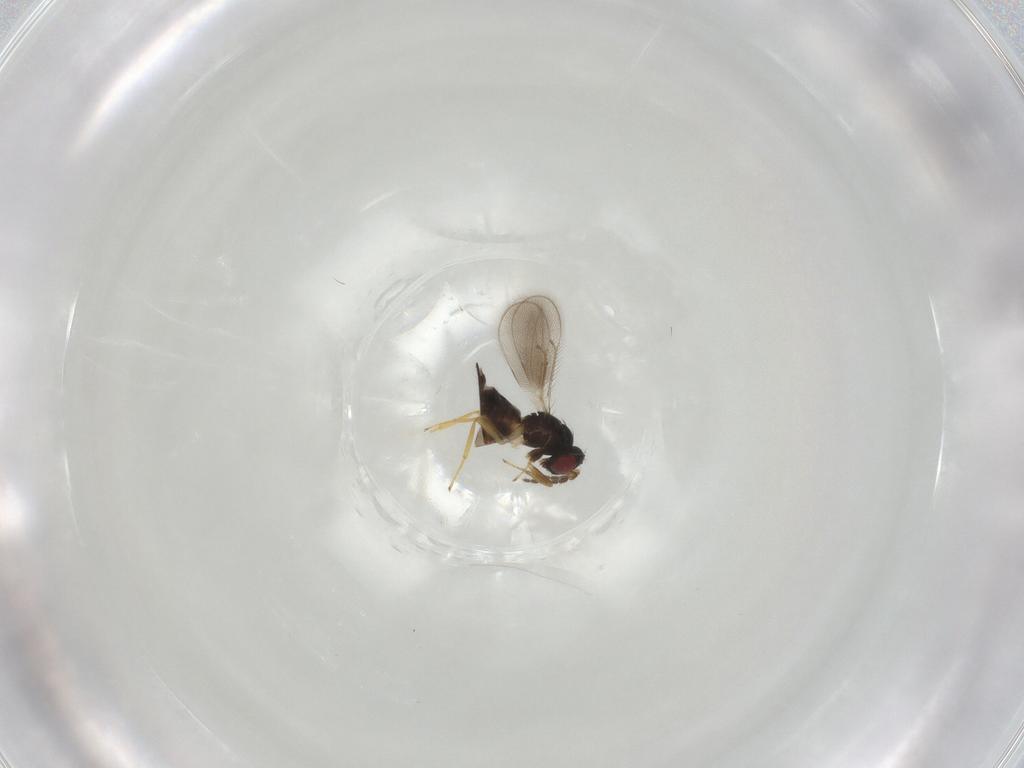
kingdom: Animalia
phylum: Arthropoda
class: Insecta
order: Hymenoptera
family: Eulophidae
